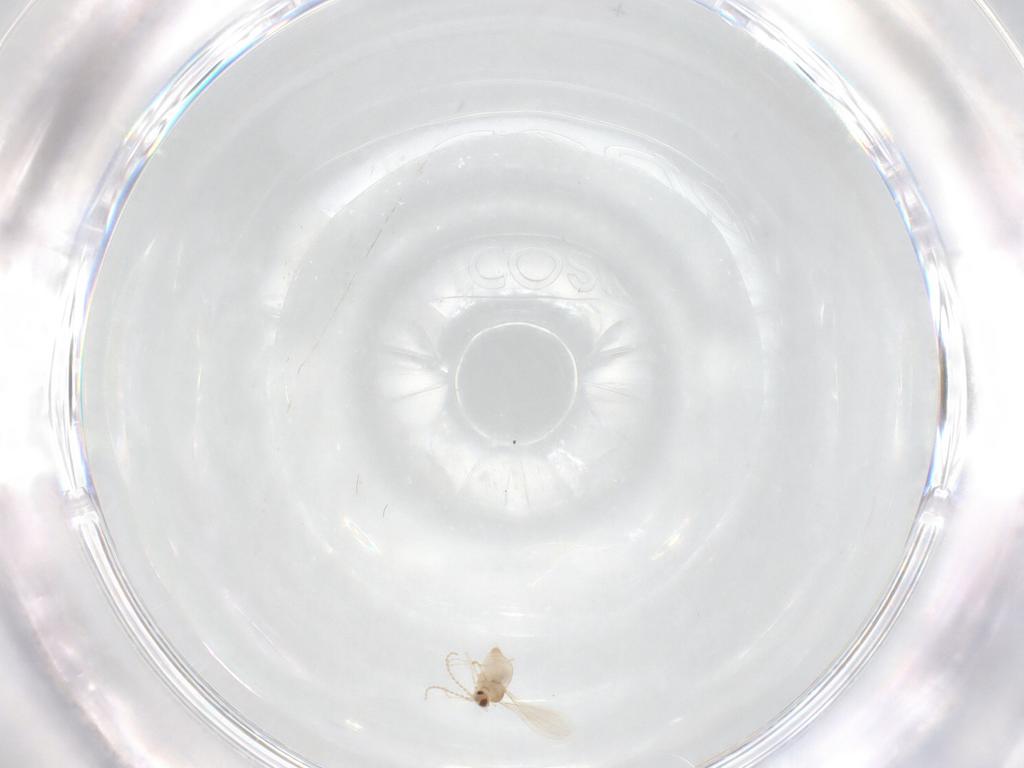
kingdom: Animalia
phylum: Arthropoda
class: Insecta
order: Diptera
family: Cecidomyiidae
